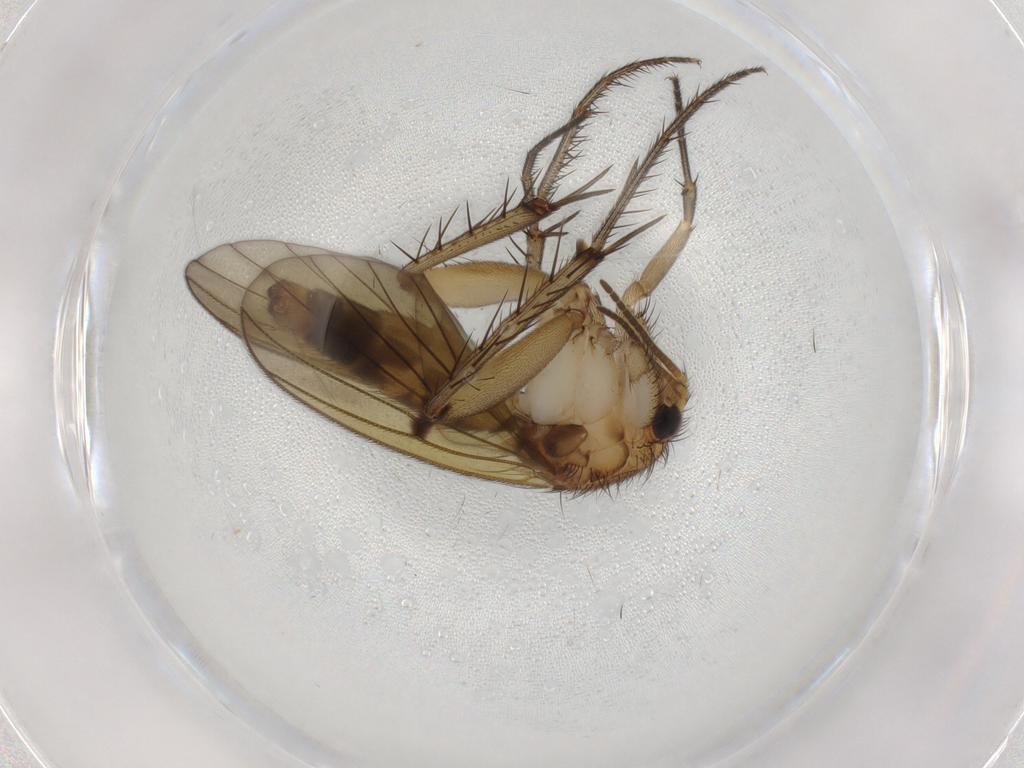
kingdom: Animalia
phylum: Arthropoda
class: Insecta
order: Diptera
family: Mycetophilidae
